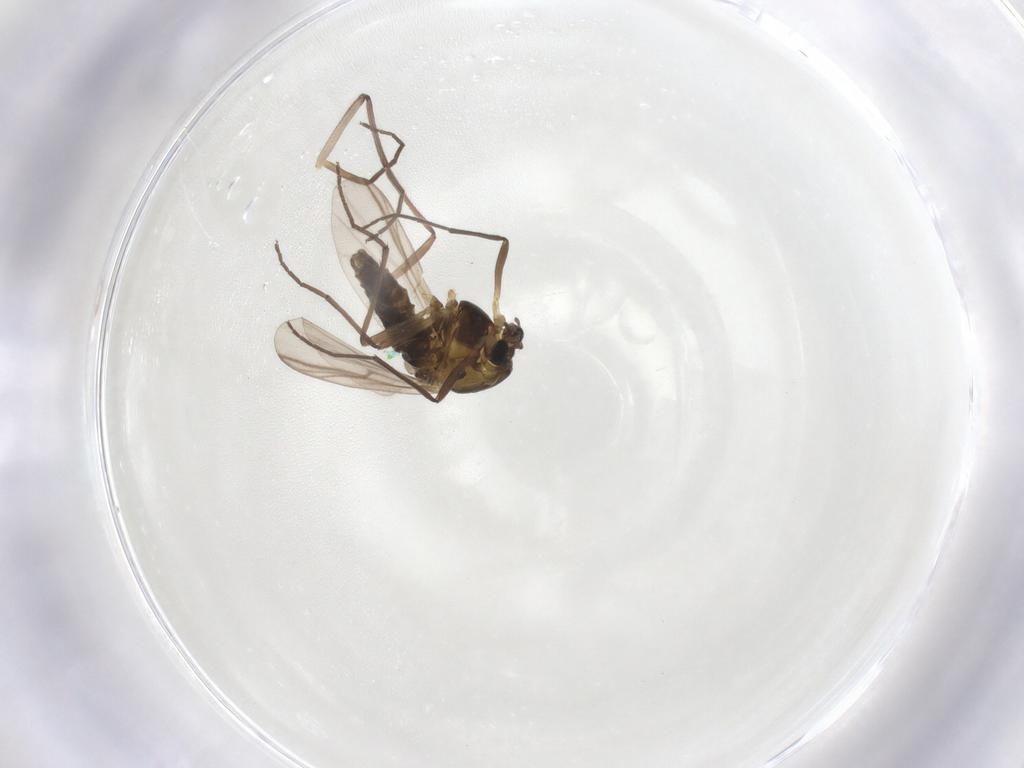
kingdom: Animalia
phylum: Arthropoda
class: Insecta
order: Diptera
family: Chironomidae
